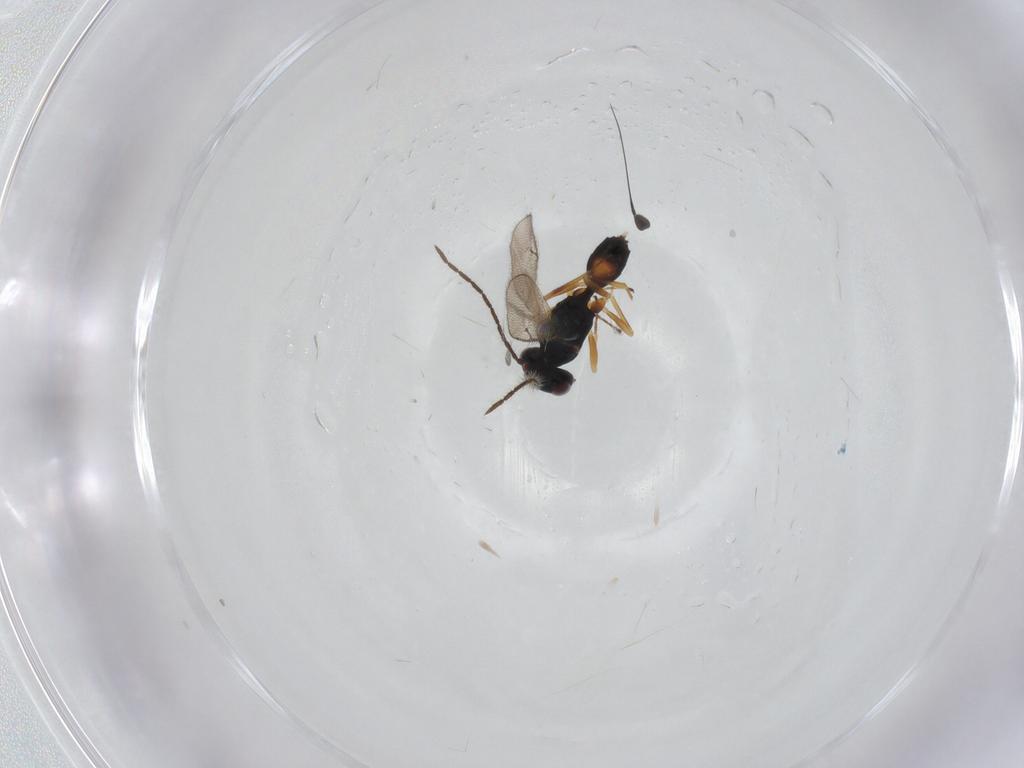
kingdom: Animalia
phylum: Arthropoda
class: Insecta
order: Hymenoptera
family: Pteromalidae
